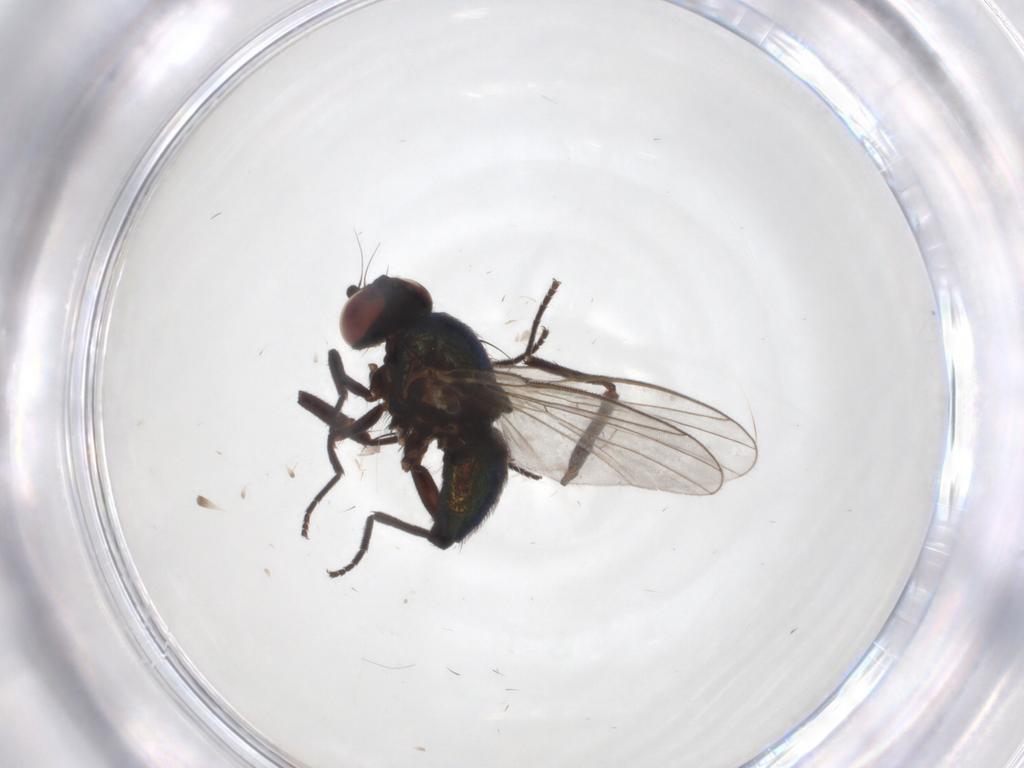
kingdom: Animalia
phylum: Arthropoda
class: Insecta
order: Diptera
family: Agromyzidae
